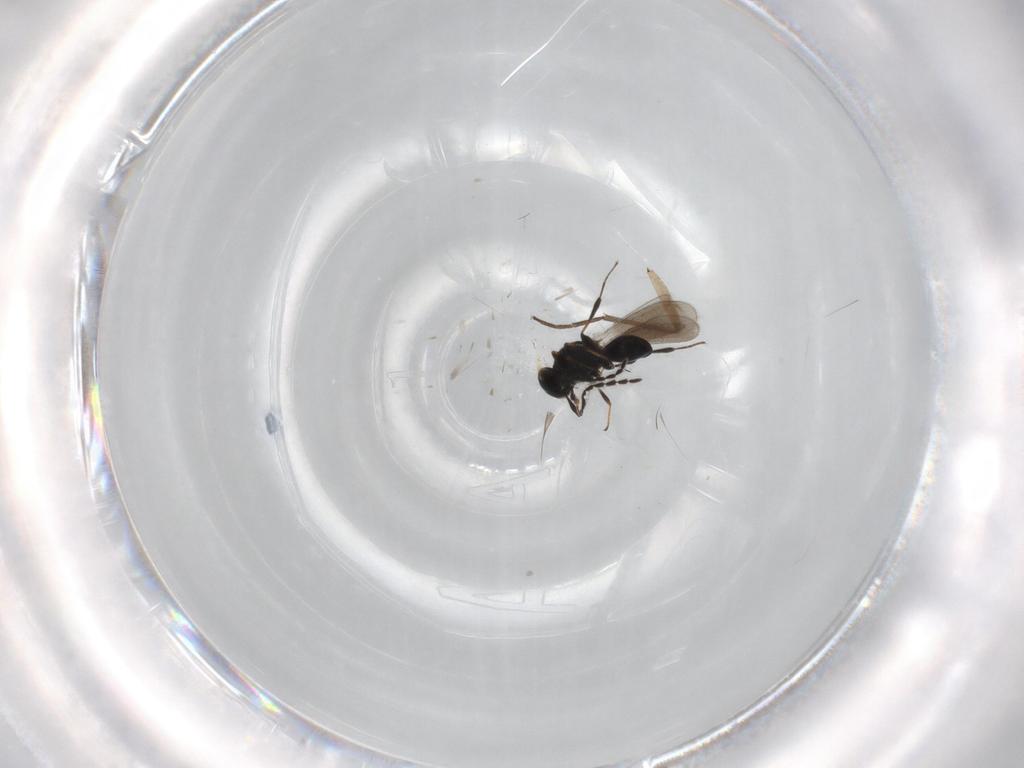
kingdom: Animalia
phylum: Arthropoda
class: Insecta
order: Hymenoptera
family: Platygastridae
